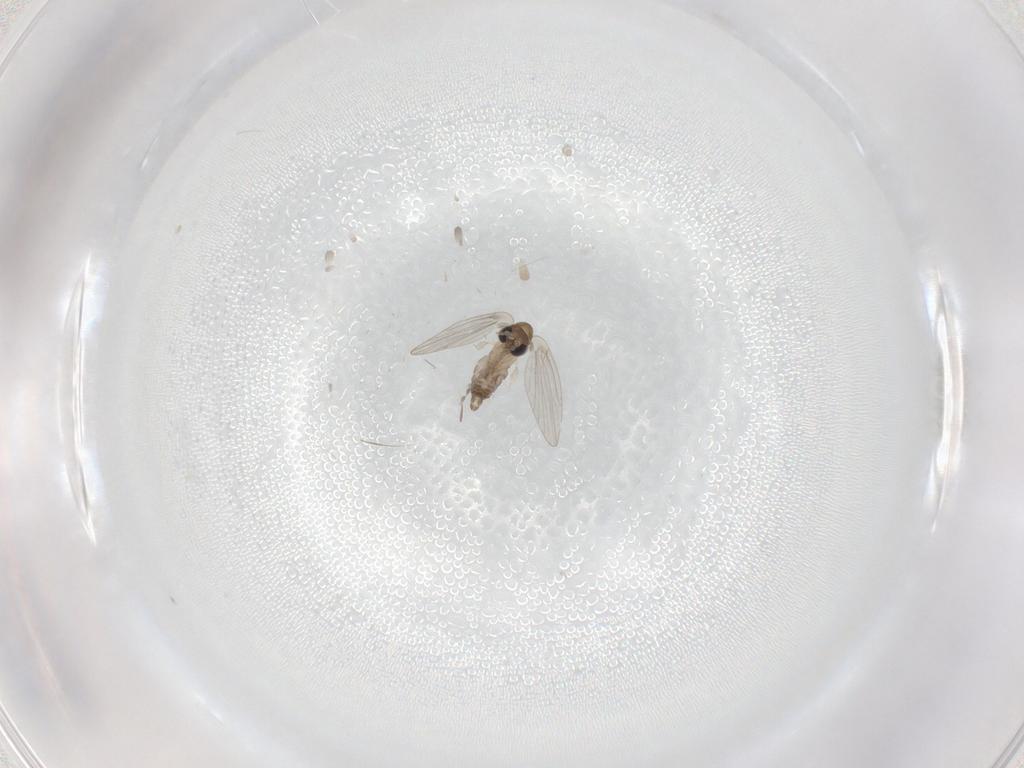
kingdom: Animalia
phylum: Arthropoda
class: Insecta
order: Diptera
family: Psychodidae
